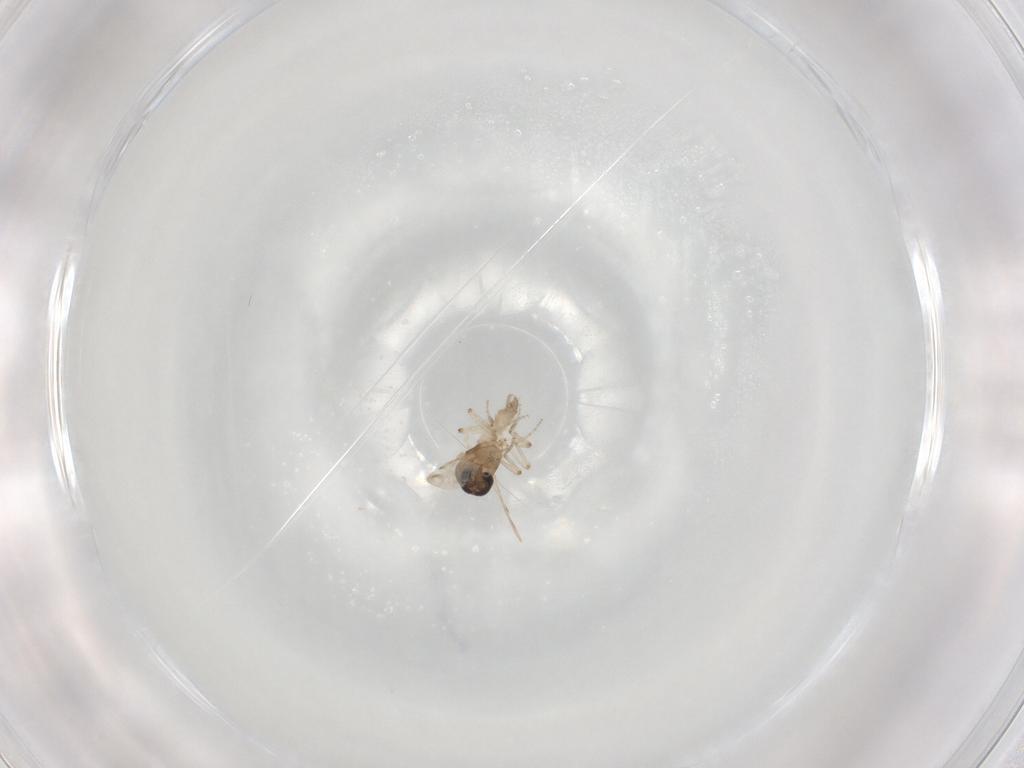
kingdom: Animalia
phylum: Arthropoda
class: Insecta
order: Diptera
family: Ceratopogonidae
